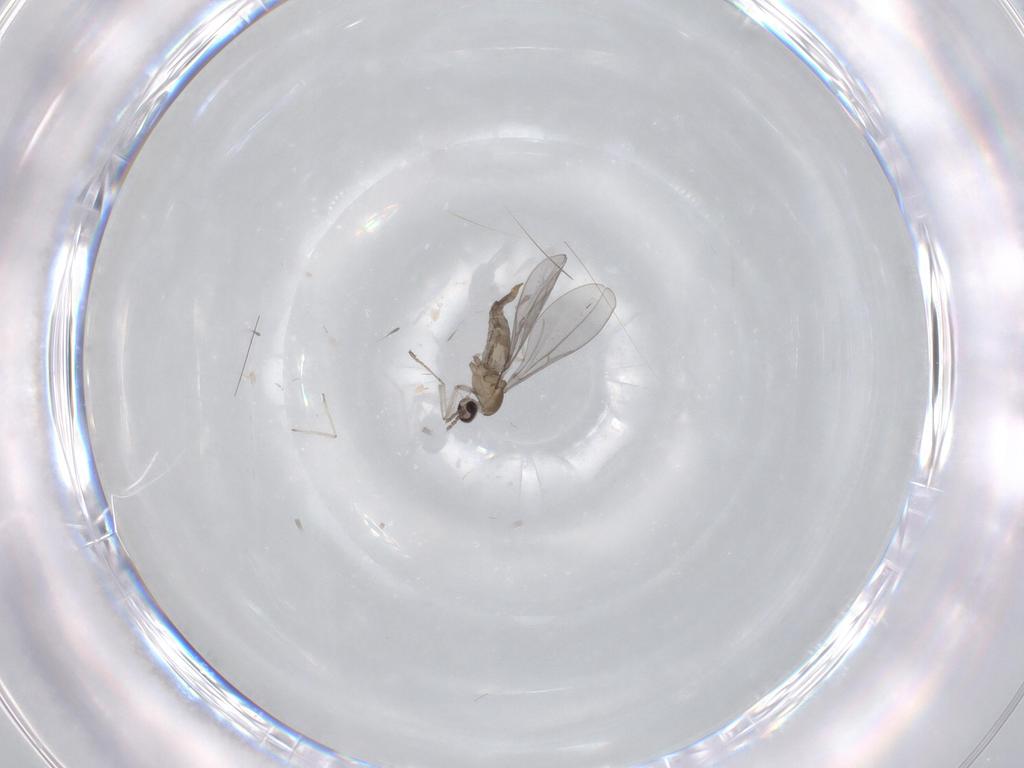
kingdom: Animalia
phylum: Arthropoda
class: Insecta
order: Diptera
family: Cecidomyiidae
